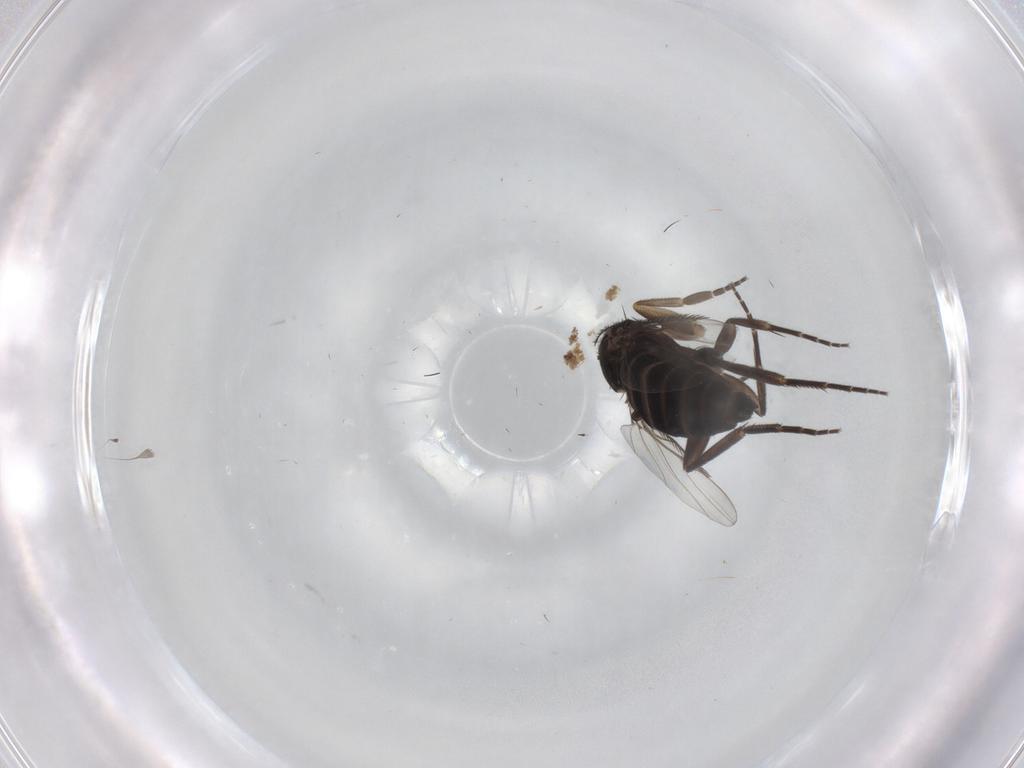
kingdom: Animalia
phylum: Arthropoda
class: Insecta
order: Diptera
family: Phoridae
